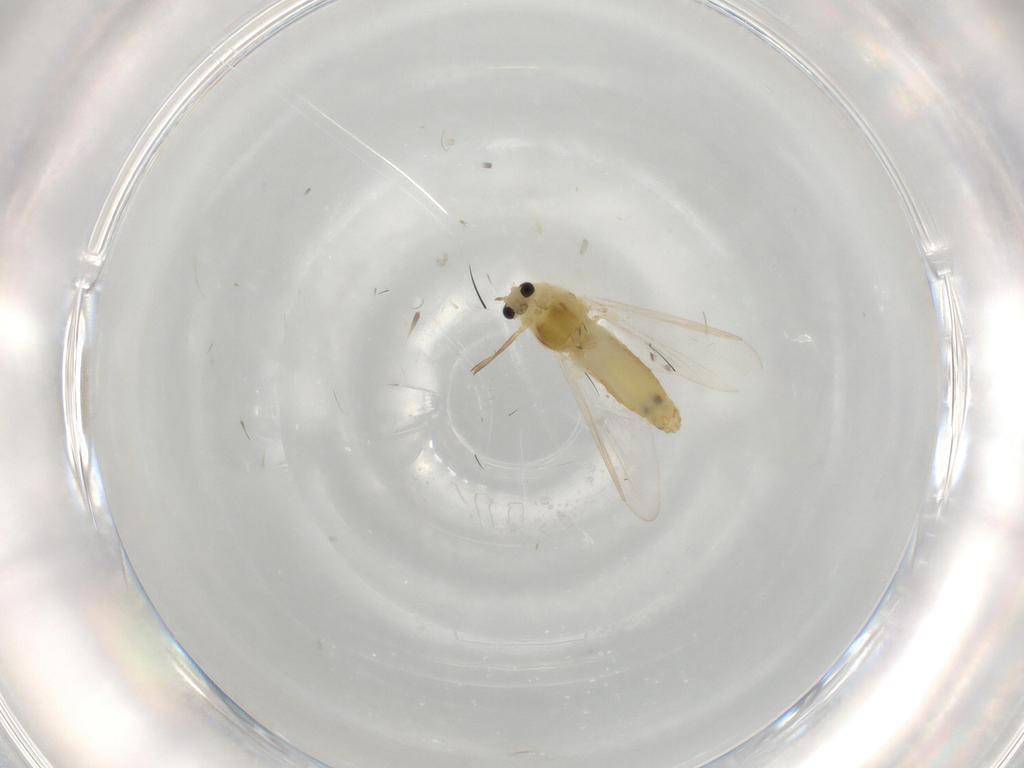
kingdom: Animalia
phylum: Arthropoda
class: Insecta
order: Diptera
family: Chironomidae
